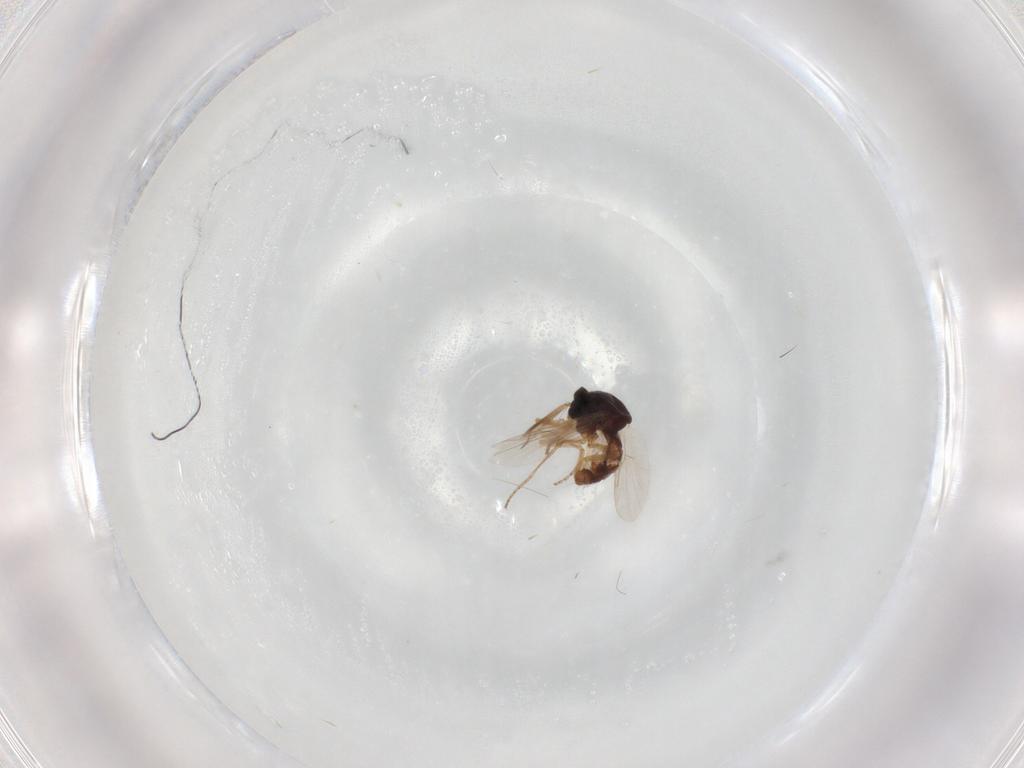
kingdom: Animalia
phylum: Arthropoda
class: Insecta
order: Diptera
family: Ceratopogonidae
